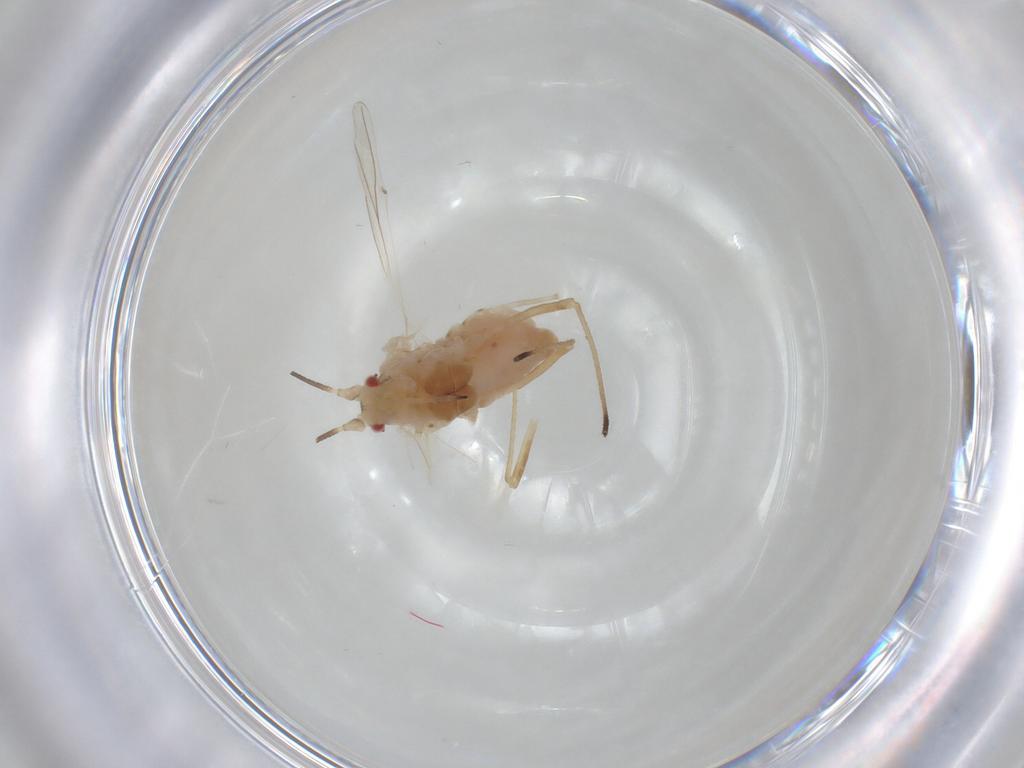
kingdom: Animalia
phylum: Arthropoda
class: Insecta
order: Hemiptera
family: Aphididae
